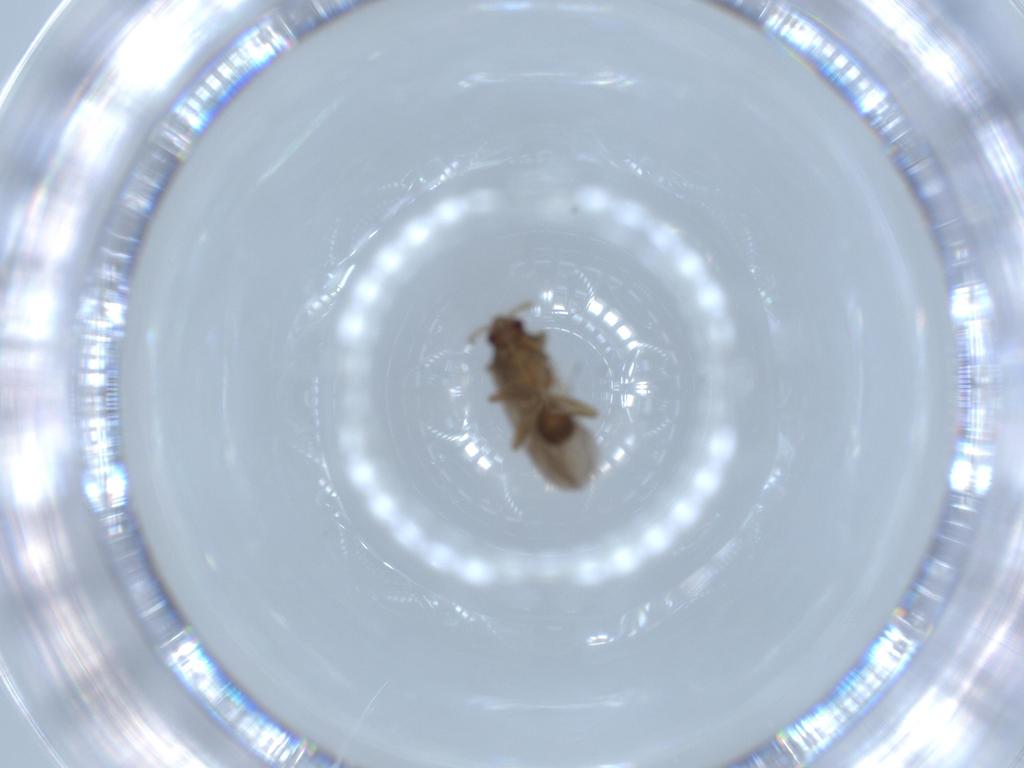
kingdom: Animalia
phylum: Arthropoda
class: Insecta
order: Hemiptera
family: Ceratocombidae
